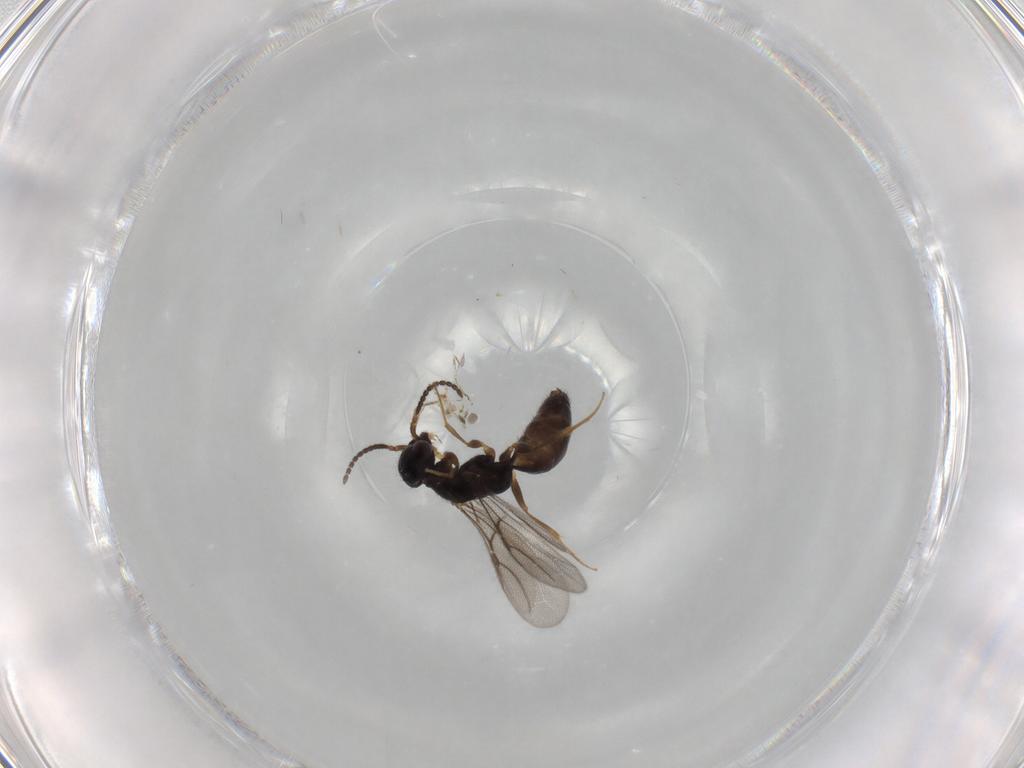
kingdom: Animalia
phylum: Arthropoda
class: Insecta
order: Hymenoptera
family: Bethylidae
